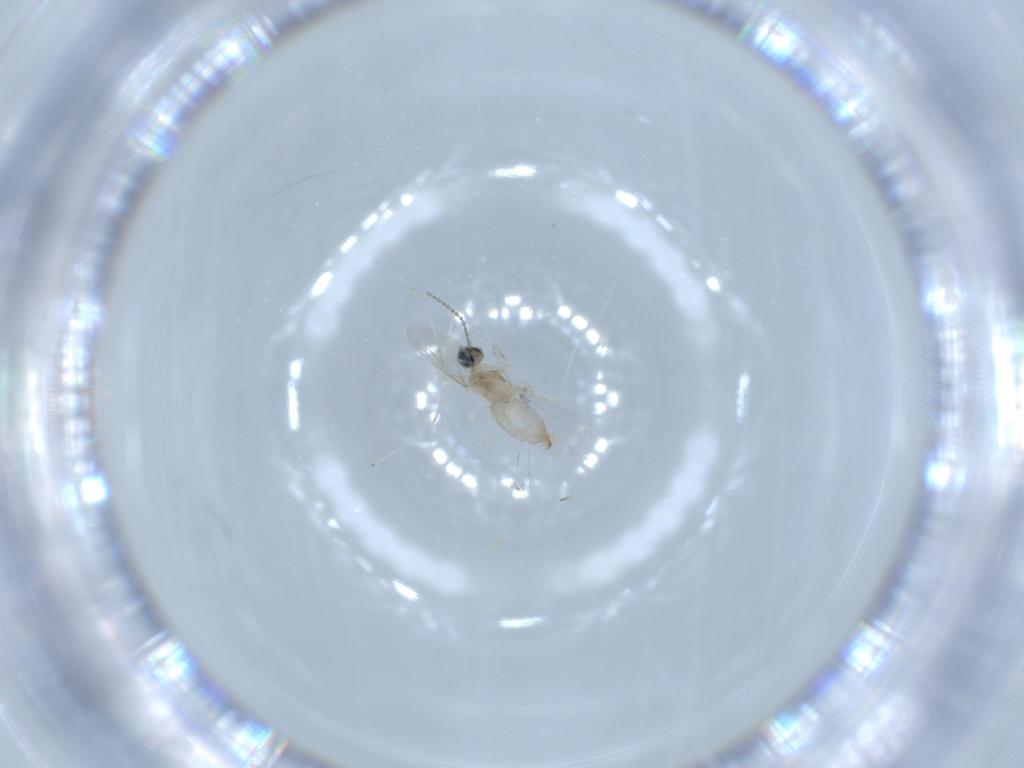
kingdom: Animalia
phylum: Arthropoda
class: Insecta
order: Diptera
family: Cecidomyiidae
